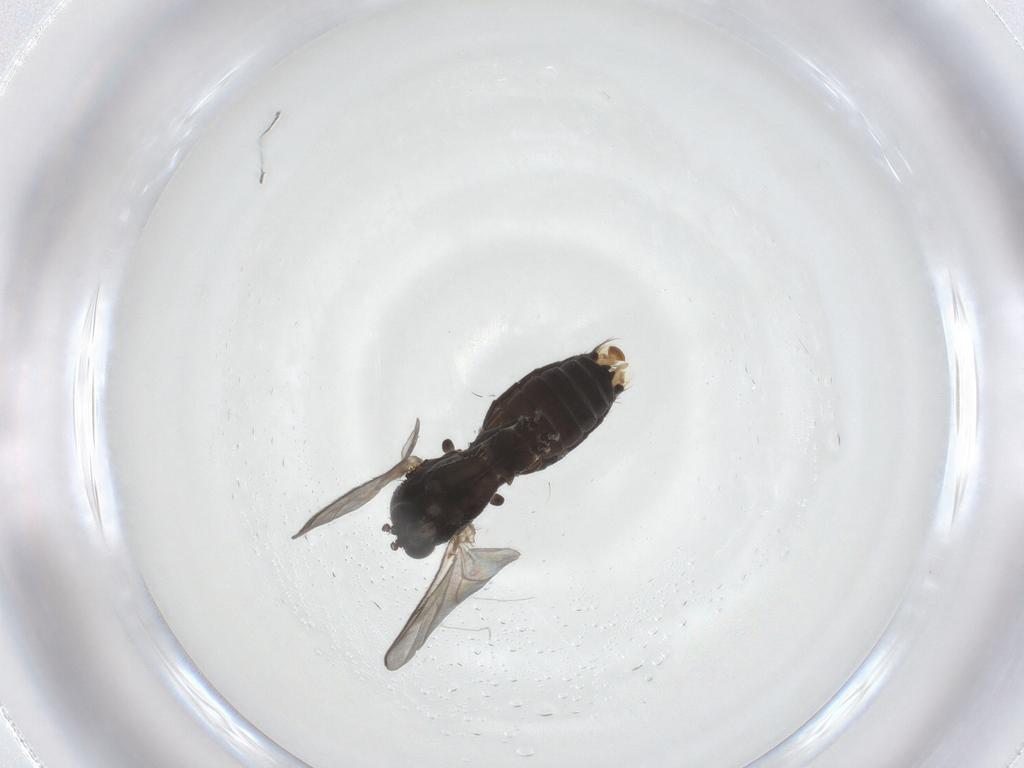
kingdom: Animalia
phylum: Arthropoda
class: Insecta
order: Diptera
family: Mycetophilidae
